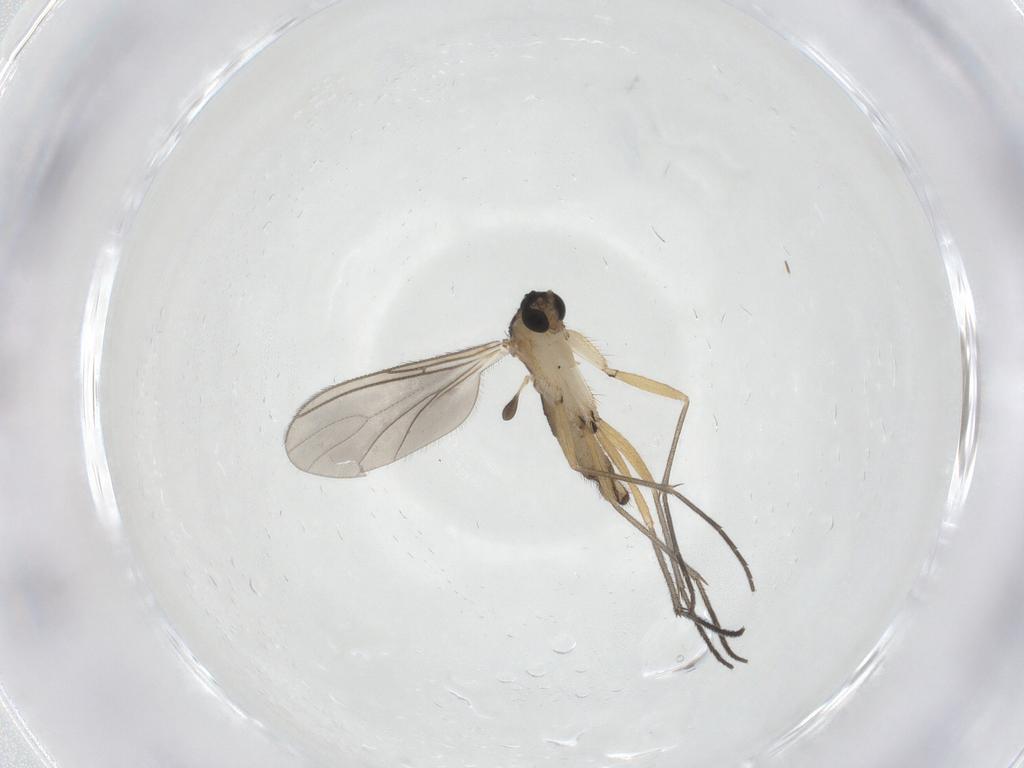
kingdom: Animalia
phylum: Arthropoda
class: Insecta
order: Diptera
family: Sciaridae
